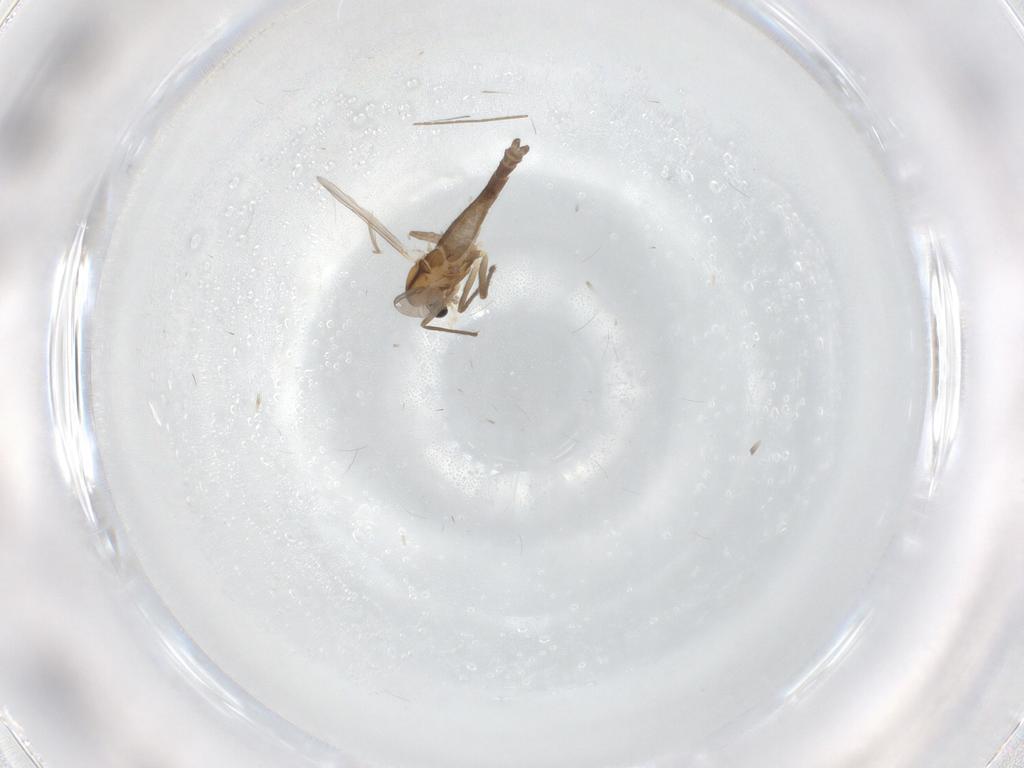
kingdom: Animalia
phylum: Arthropoda
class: Insecta
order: Diptera
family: Chironomidae
